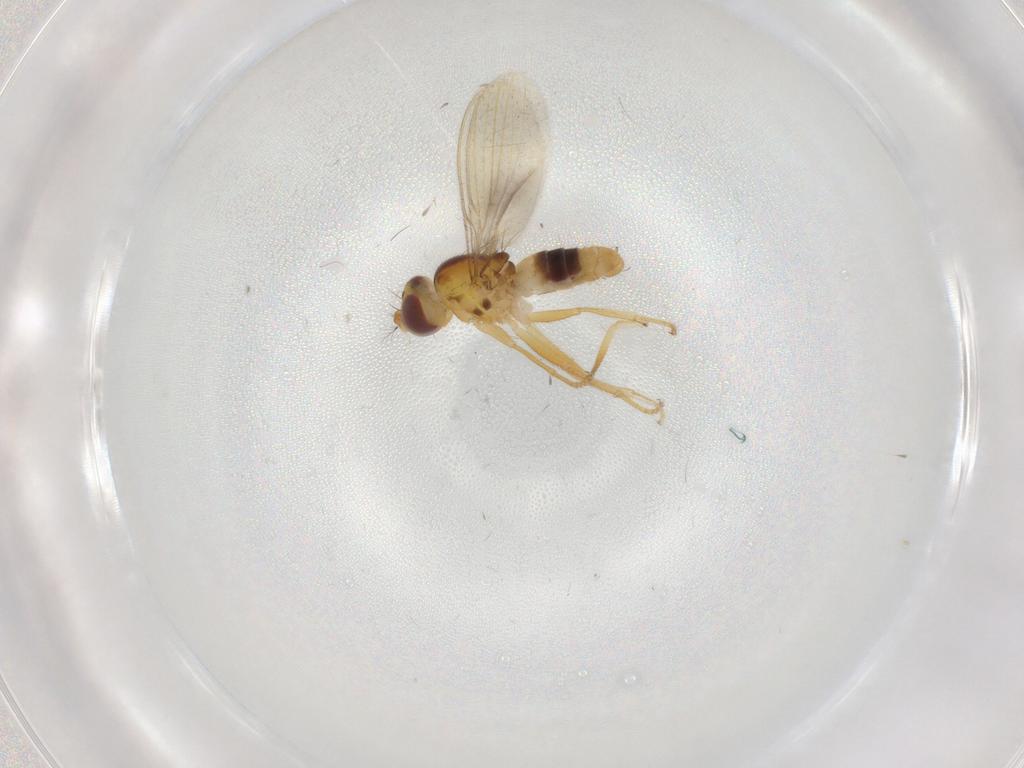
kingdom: Animalia
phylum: Arthropoda
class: Insecta
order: Diptera
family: Periscelididae
